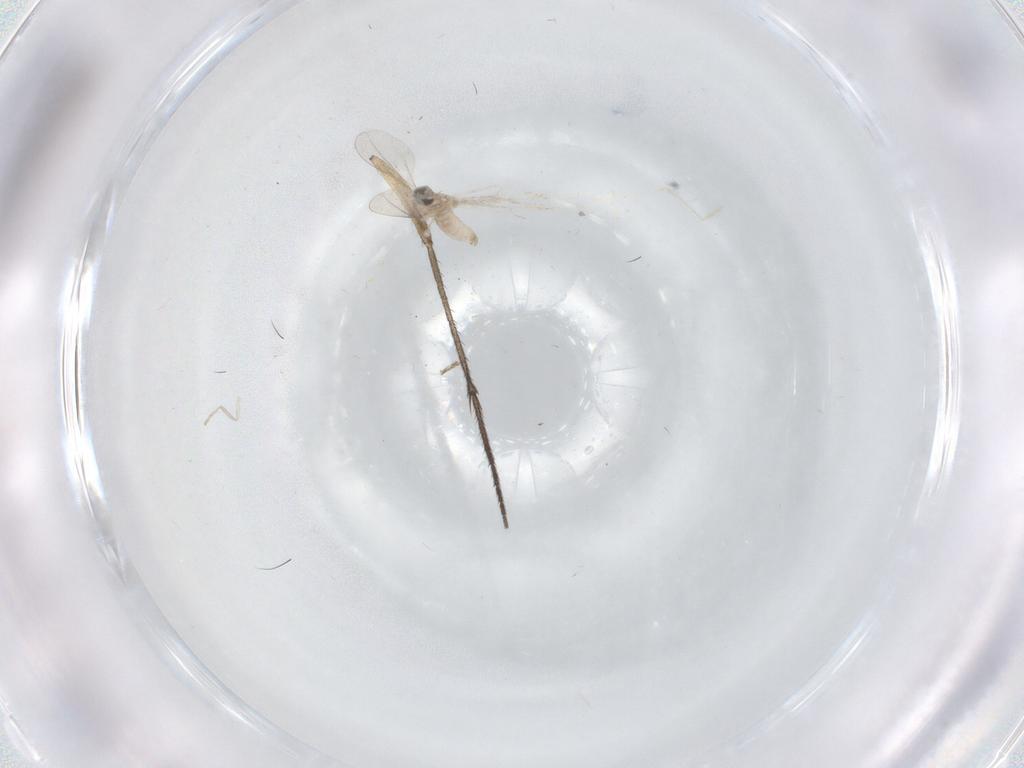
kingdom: Animalia
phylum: Arthropoda
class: Insecta
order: Diptera
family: Sciaridae
